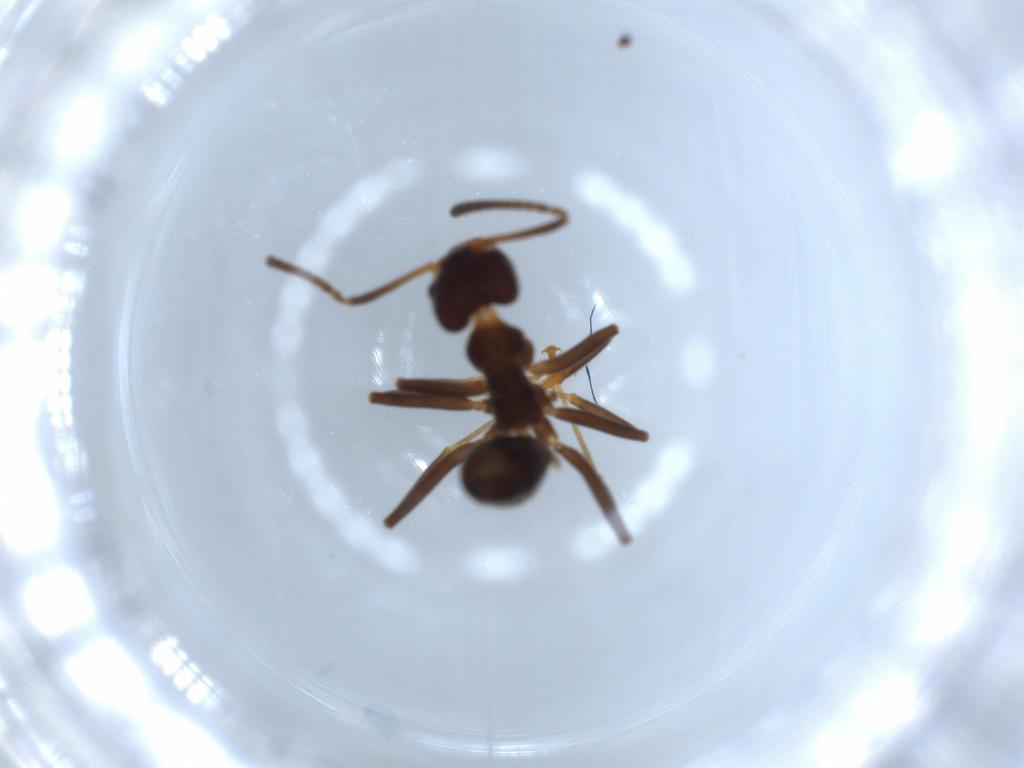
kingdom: Animalia
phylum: Arthropoda
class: Insecta
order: Hymenoptera
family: Formicidae
